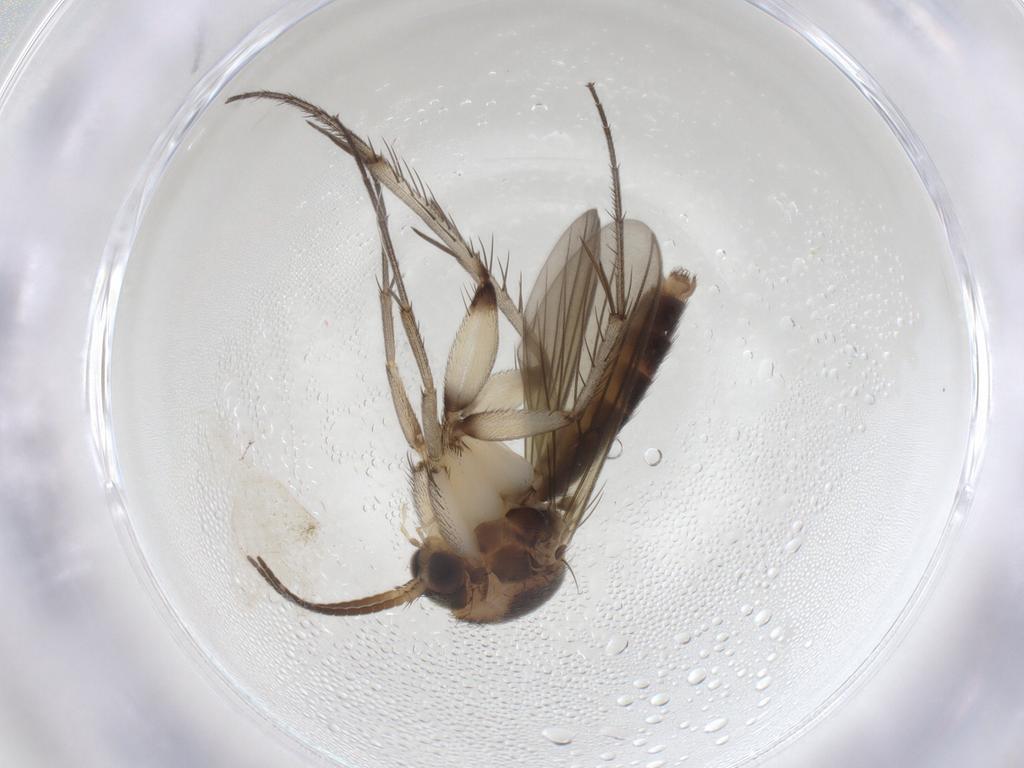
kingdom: Animalia
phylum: Arthropoda
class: Insecta
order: Diptera
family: Mycetophilidae
